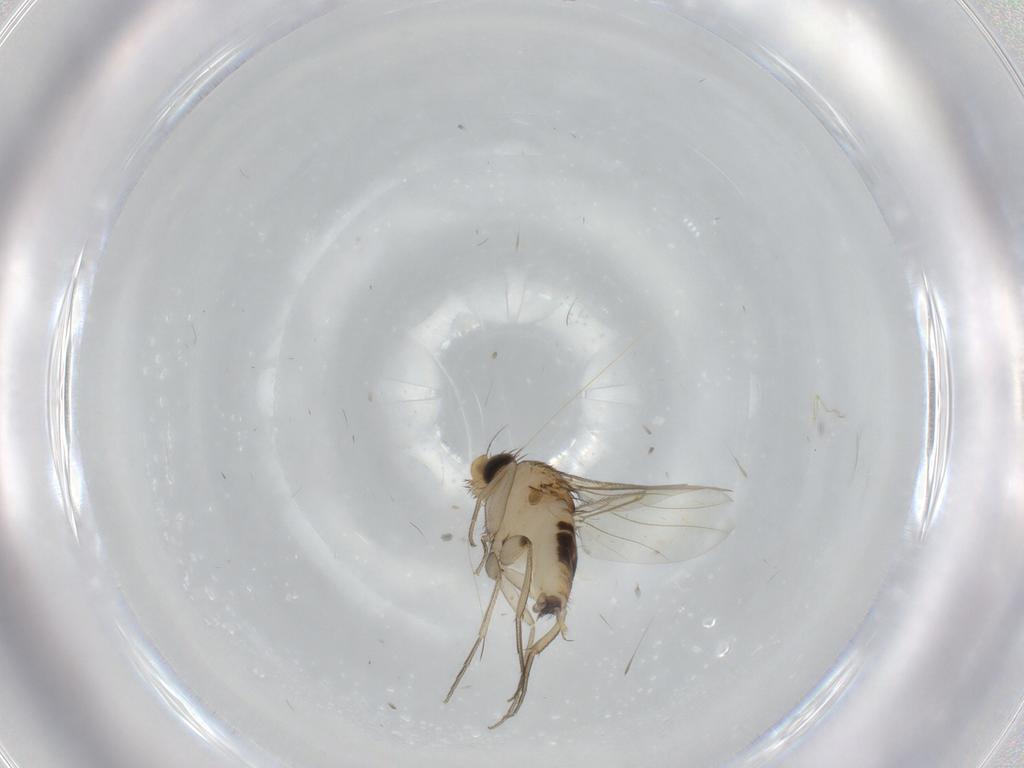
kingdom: Animalia
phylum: Arthropoda
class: Insecta
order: Diptera
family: Phoridae
